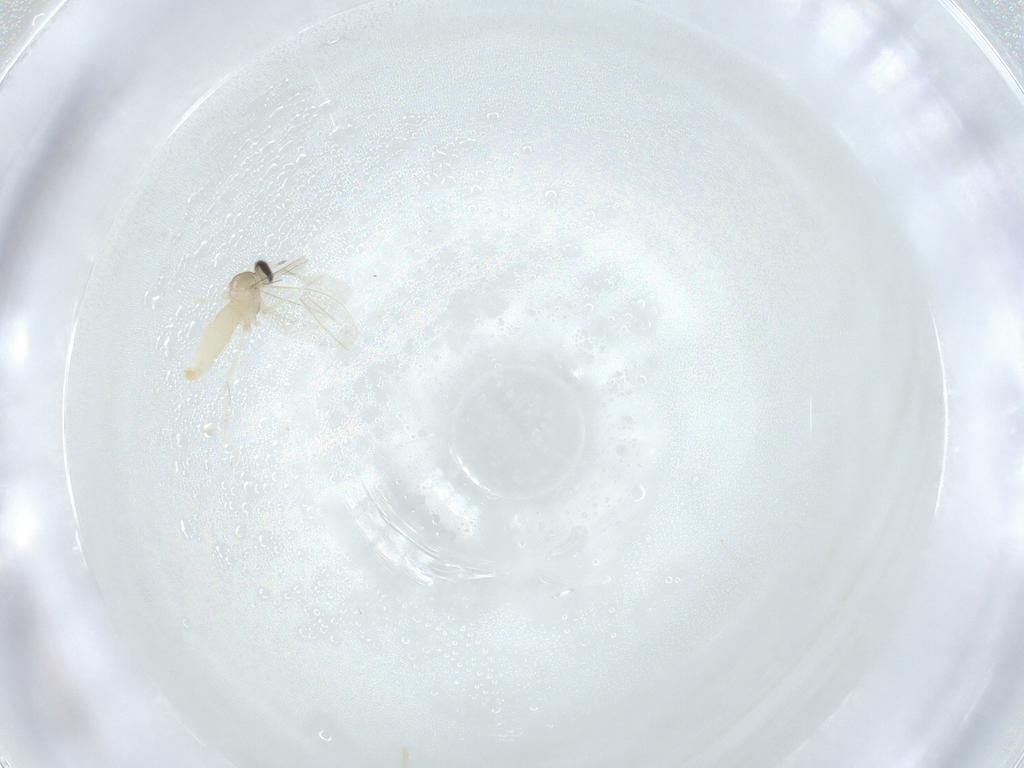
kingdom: Animalia
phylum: Arthropoda
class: Insecta
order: Diptera
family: Cecidomyiidae
